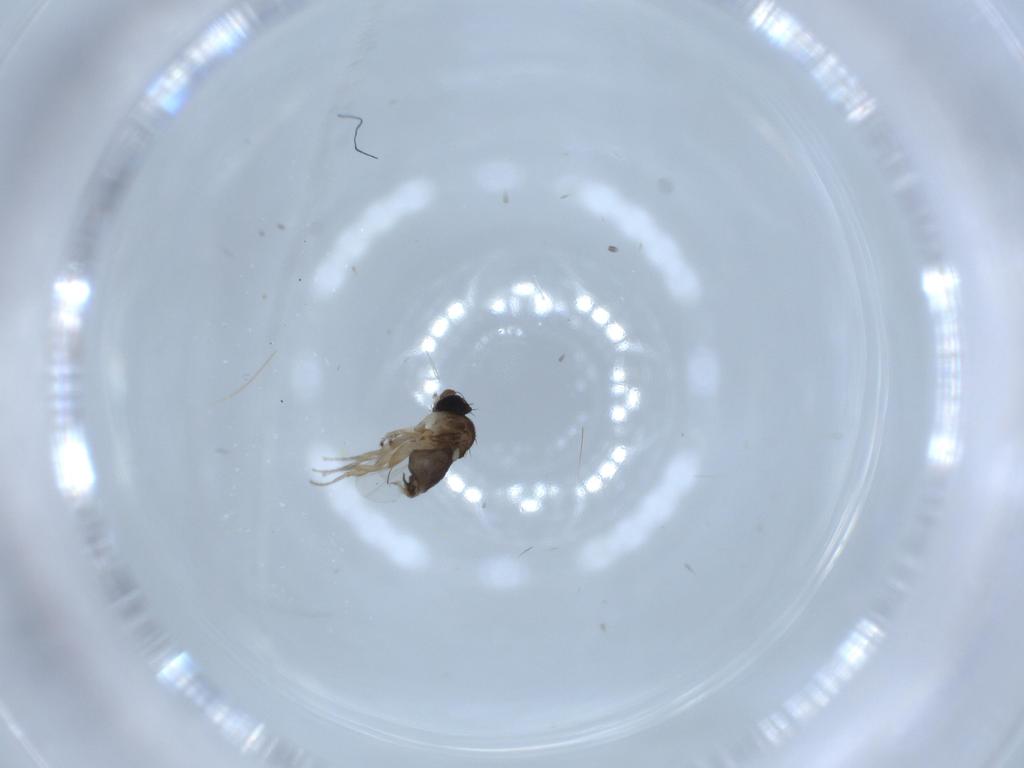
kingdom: Animalia
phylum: Arthropoda
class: Insecta
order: Diptera
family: Phoridae
